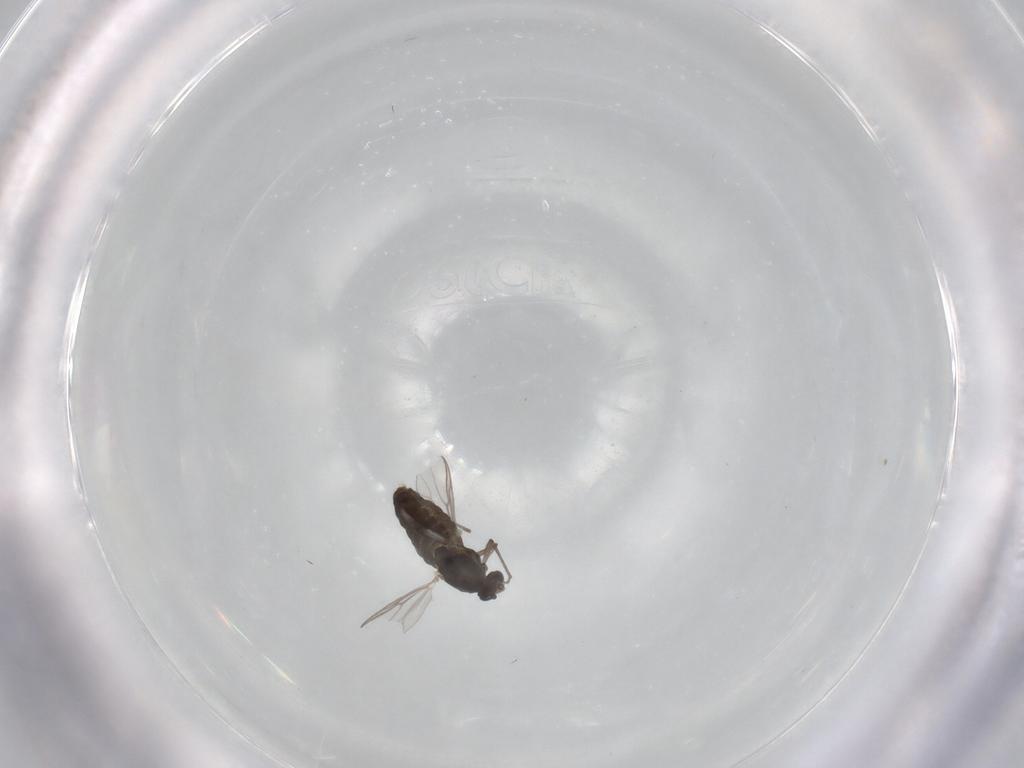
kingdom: Animalia
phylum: Arthropoda
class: Insecta
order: Diptera
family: Chironomidae
